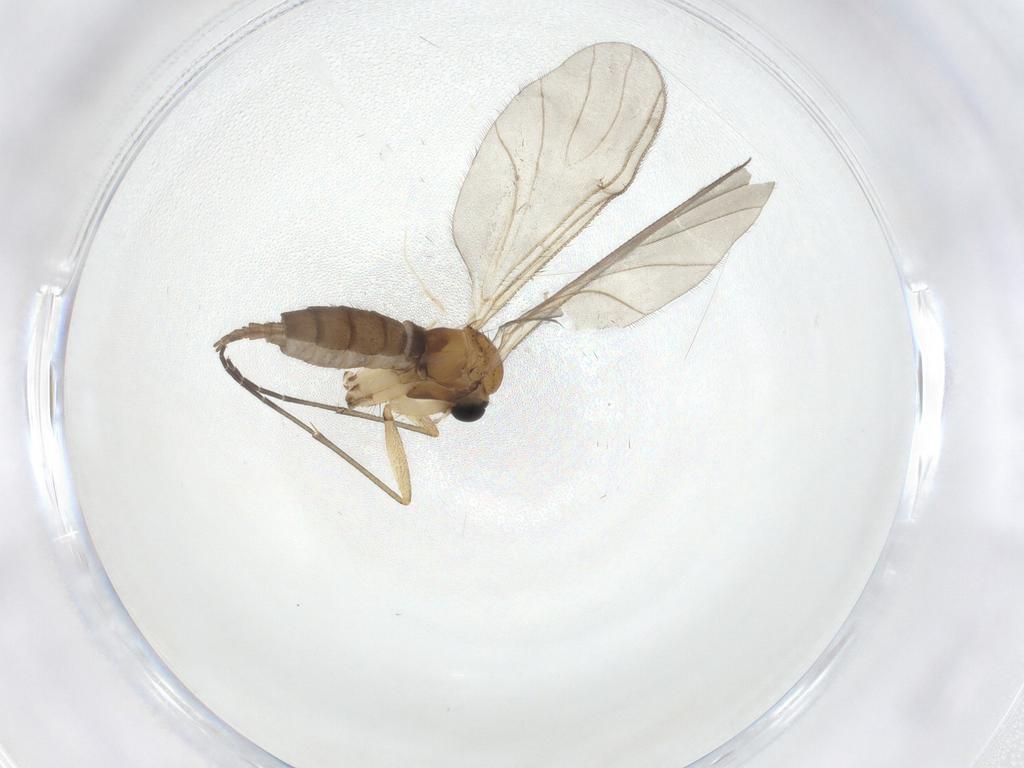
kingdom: Animalia
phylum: Arthropoda
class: Insecta
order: Diptera
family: Sciaridae
